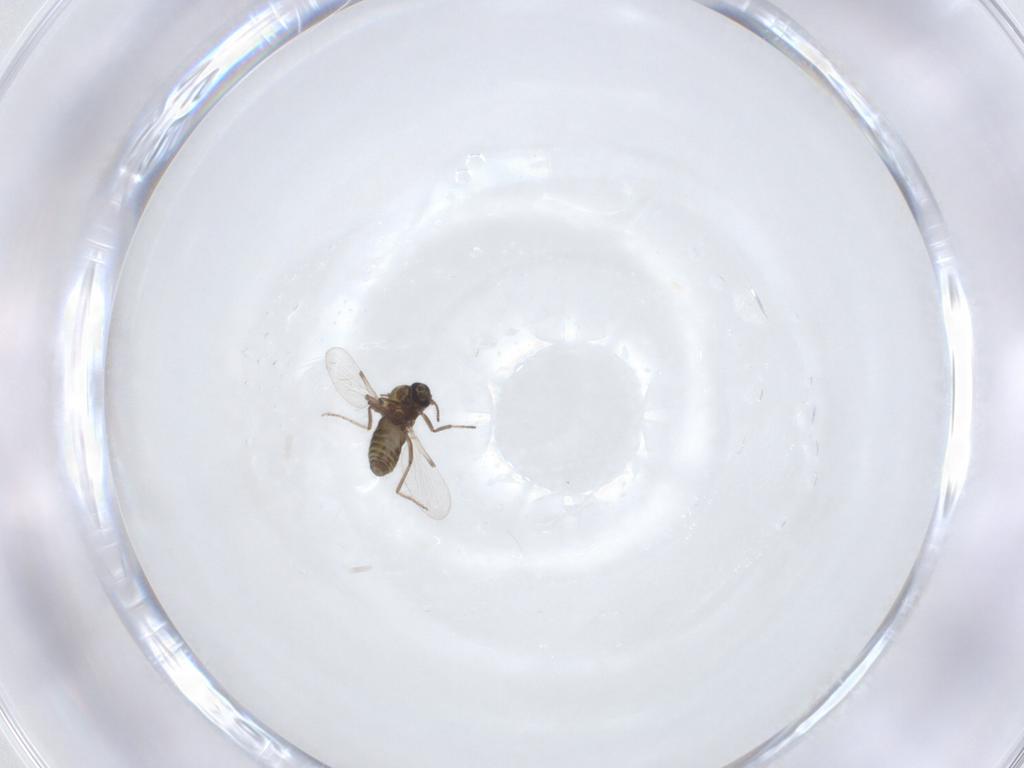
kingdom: Animalia
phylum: Arthropoda
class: Insecta
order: Diptera
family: Ceratopogonidae
